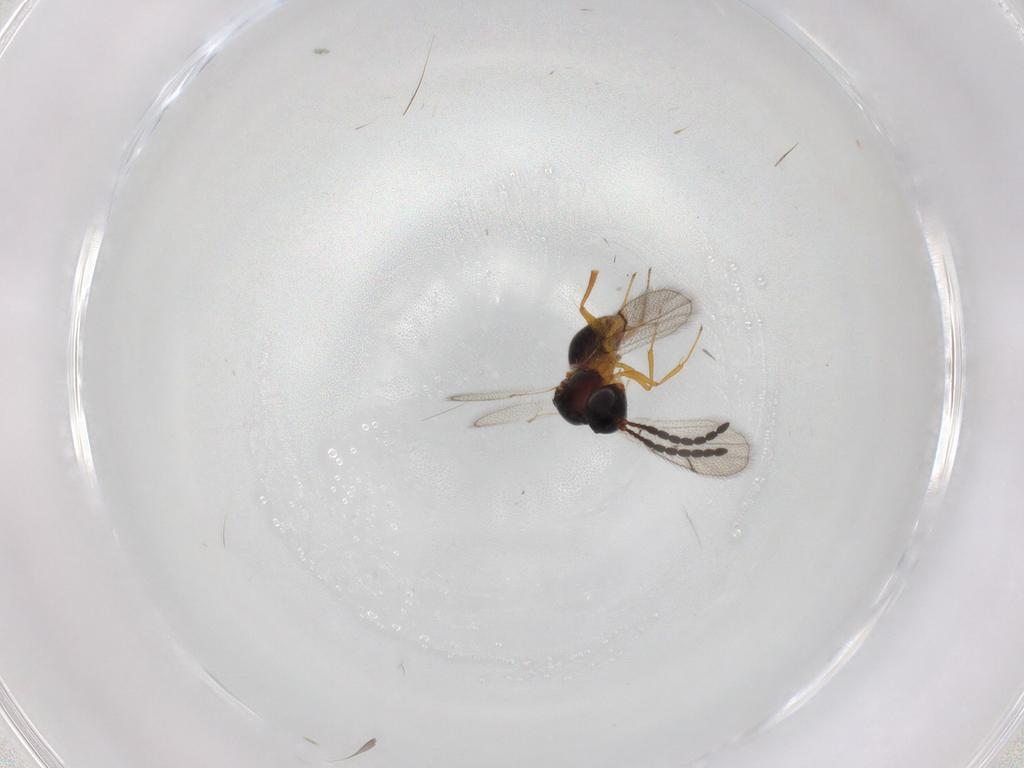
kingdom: Animalia
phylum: Arthropoda
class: Insecta
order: Hymenoptera
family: Figitidae
